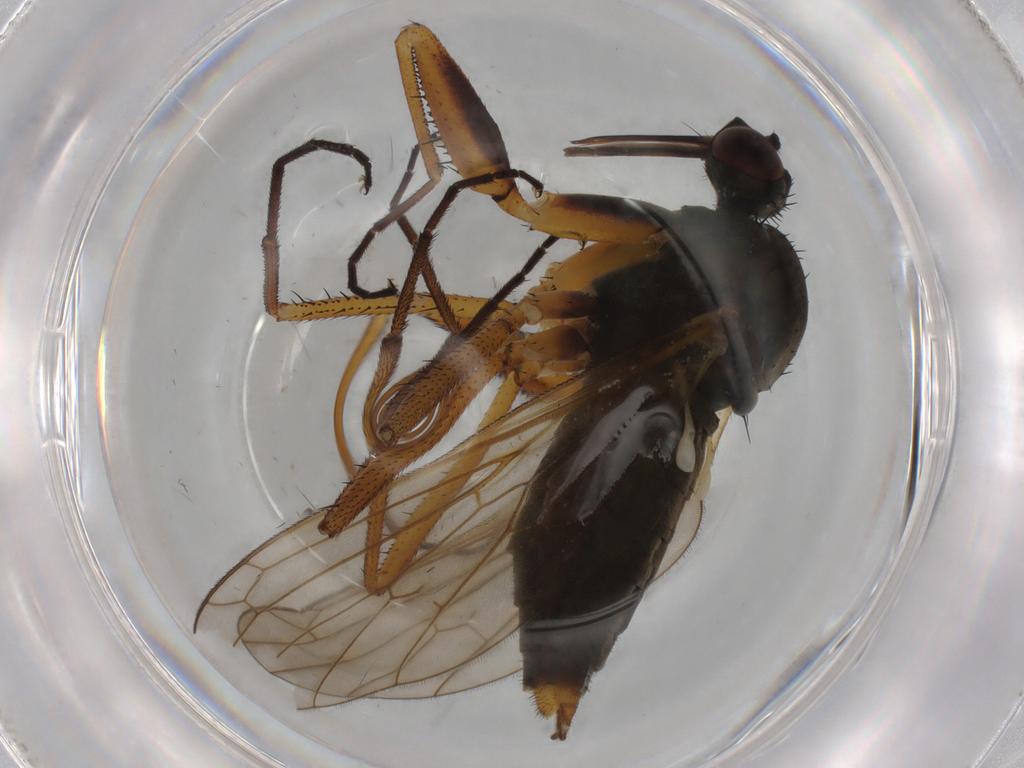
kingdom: Animalia
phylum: Arthropoda
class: Insecta
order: Diptera
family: Empididae
